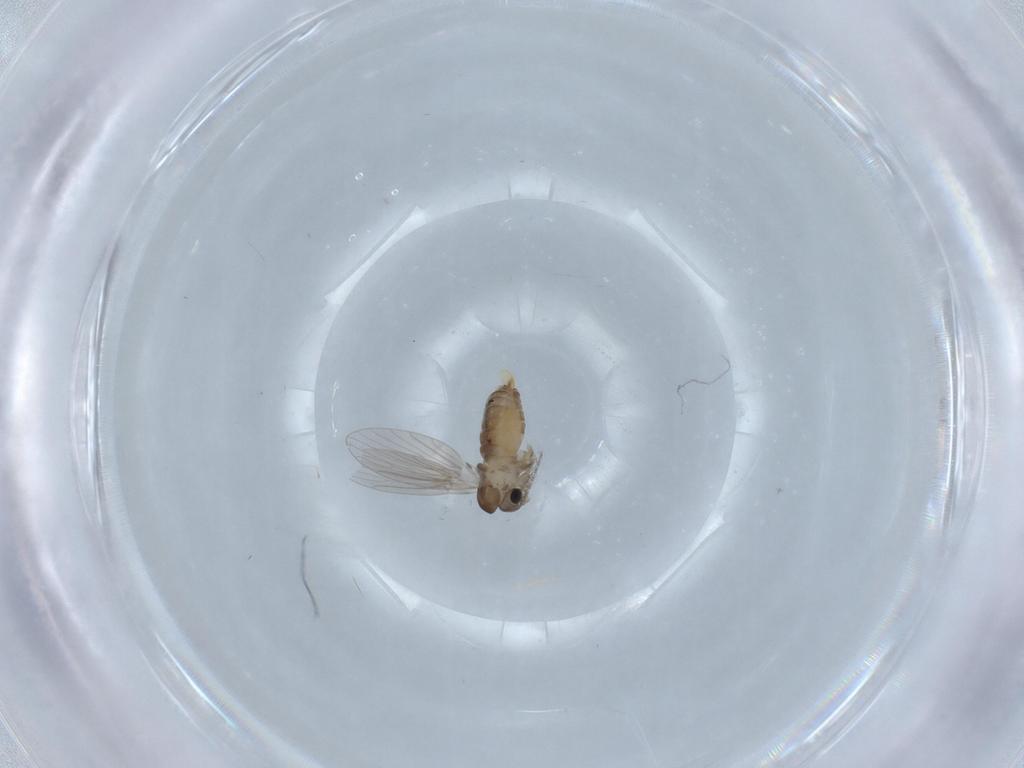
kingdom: Animalia
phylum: Arthropoda
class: Insecta
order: Diptera
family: Psychodidae
